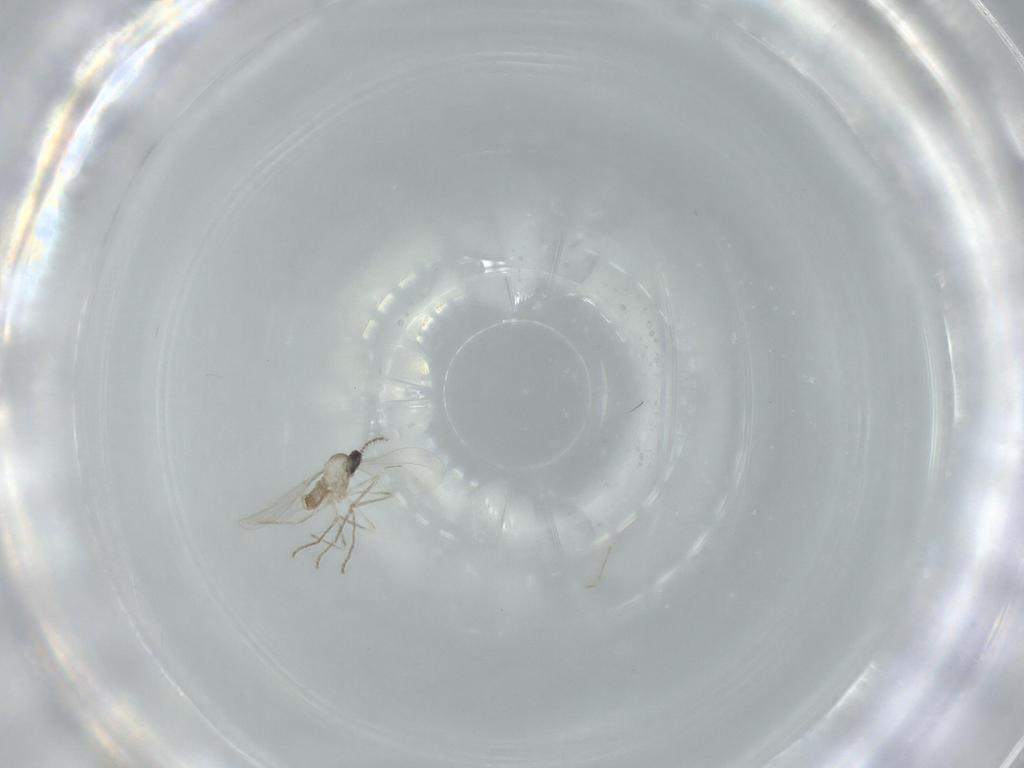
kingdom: Animalia
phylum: Arthropoda
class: Insecta
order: Diptera
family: Cecidomyiidae
